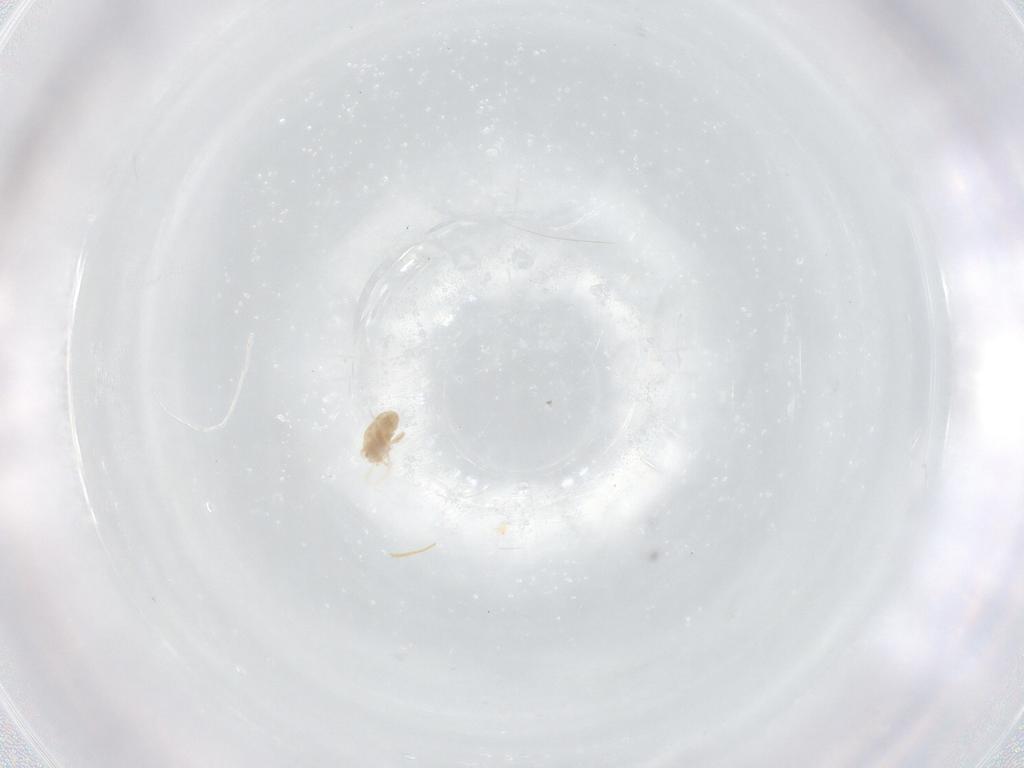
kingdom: Animalia
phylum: Arthropoda
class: Arachnida
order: Trombidiformes
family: Eupodidae
